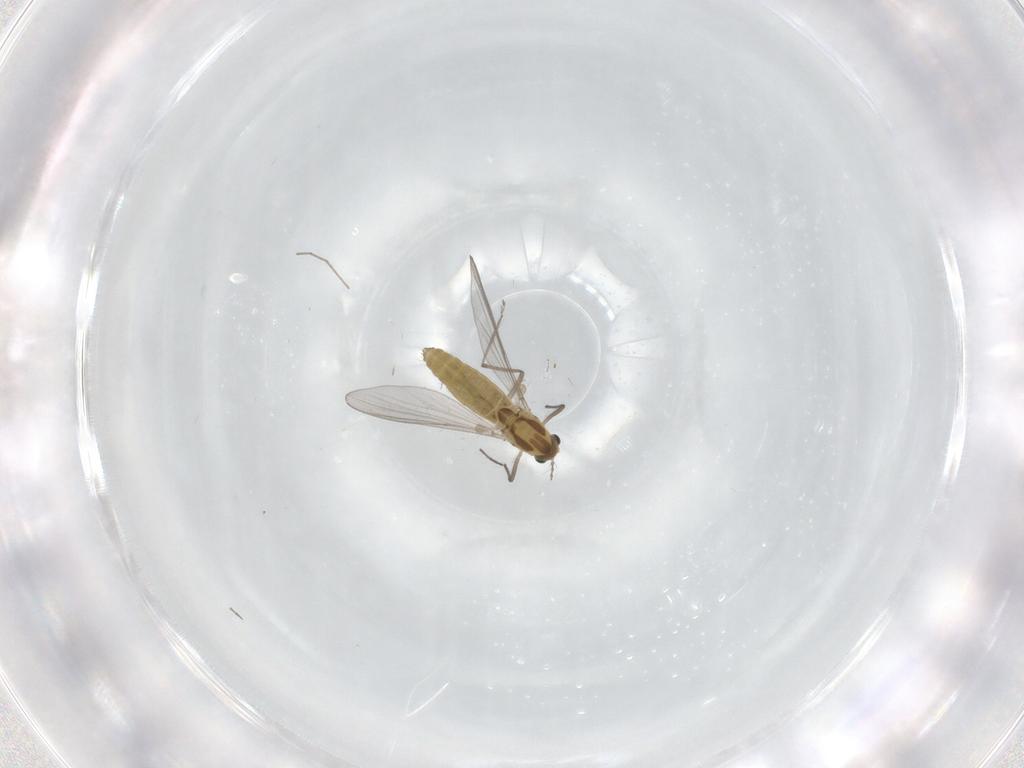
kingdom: Animalia
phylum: Arthropoda
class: Insecta
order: Diptera
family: Chironomidae
